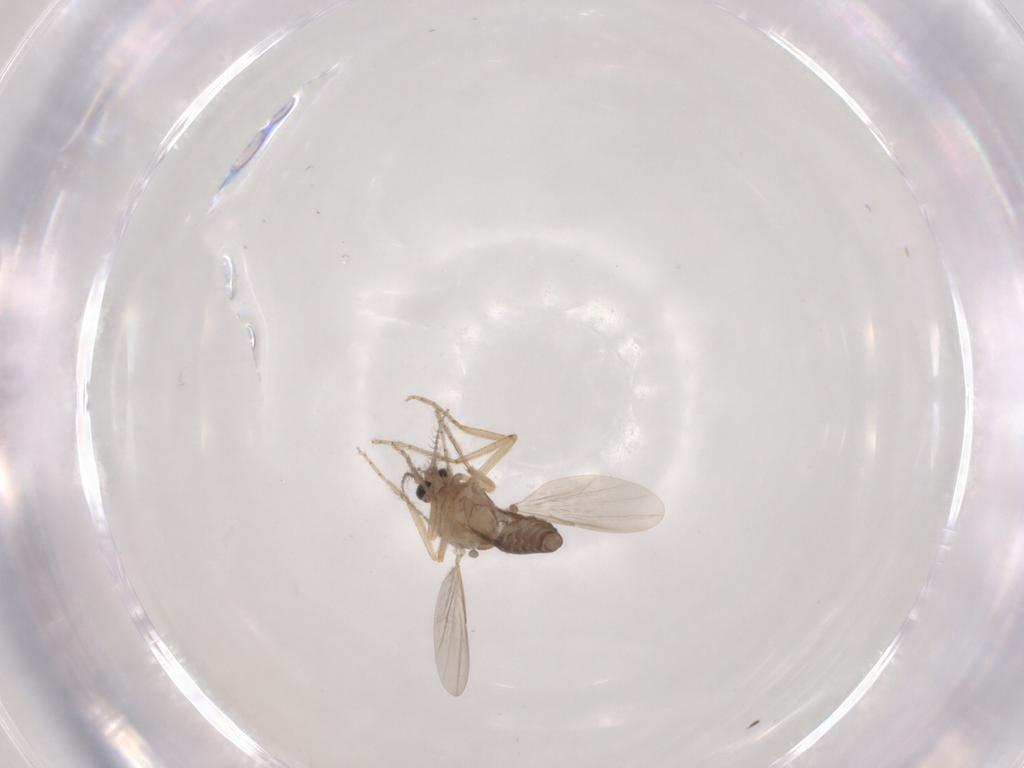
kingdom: Animalia
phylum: Arthropoda
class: Insecta
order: Diptera
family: Ceratopogonidae
